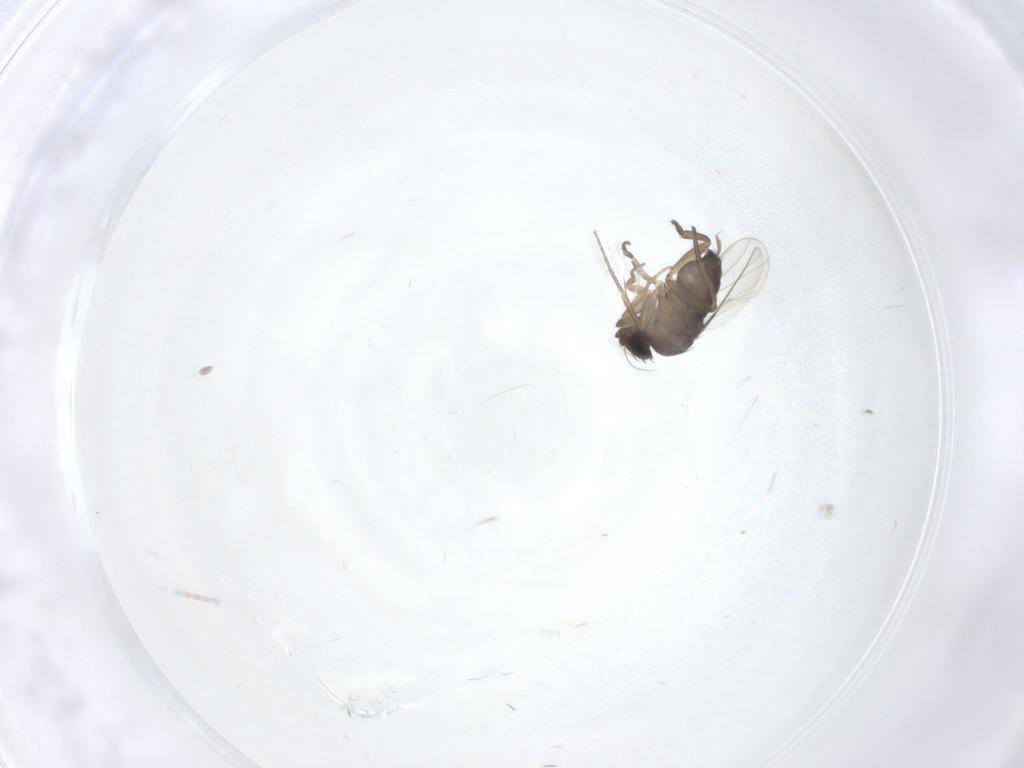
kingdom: Animalia
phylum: Arthropoda
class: Insecta
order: Diptera
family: Phoridae
